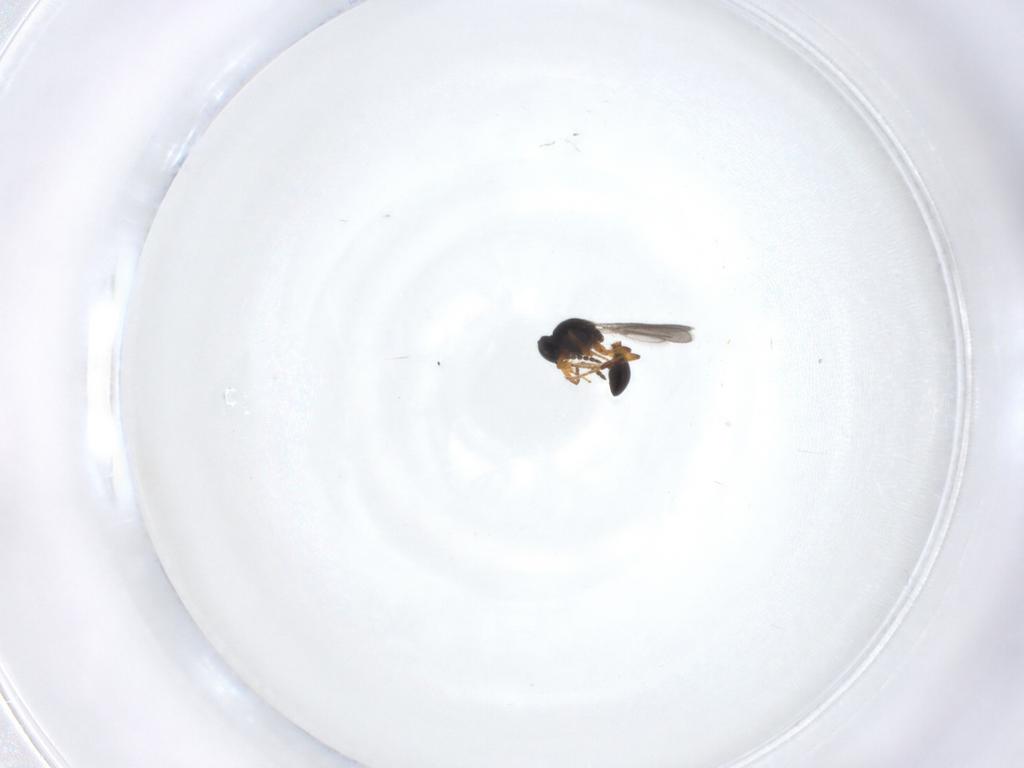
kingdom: Animalia
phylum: Arthropoda
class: Insecta
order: Hymenoptera
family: Platygastridae
